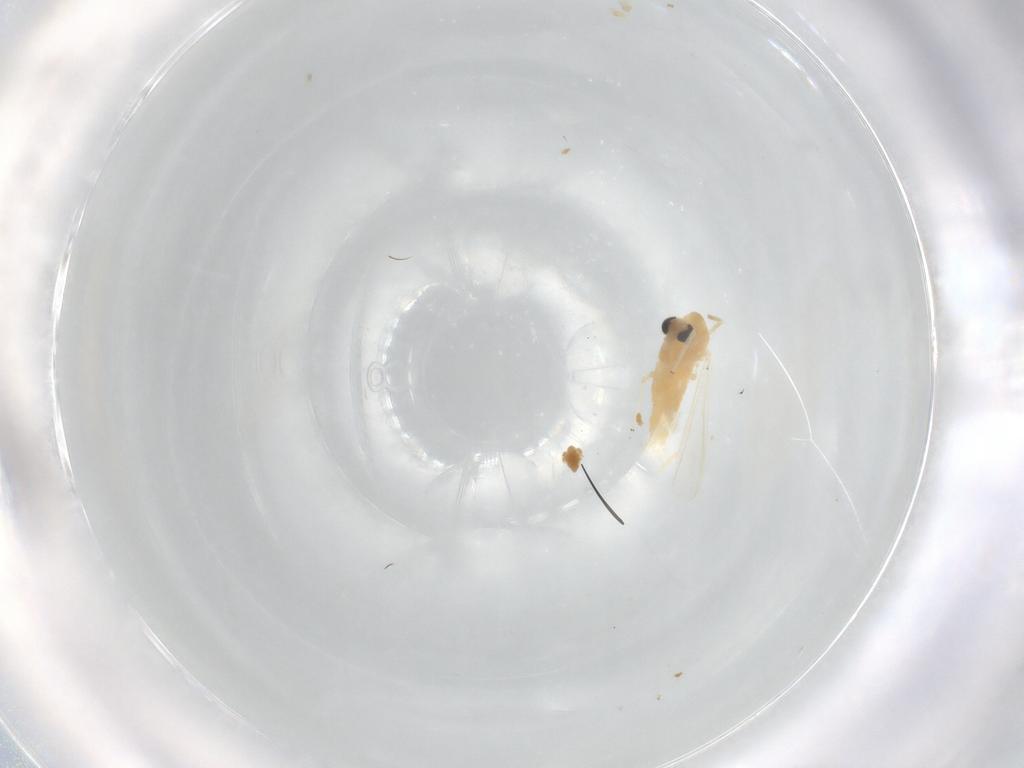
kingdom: Animalia
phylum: Arthropoda
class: Insecta
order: Diptera
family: Chironomidae
